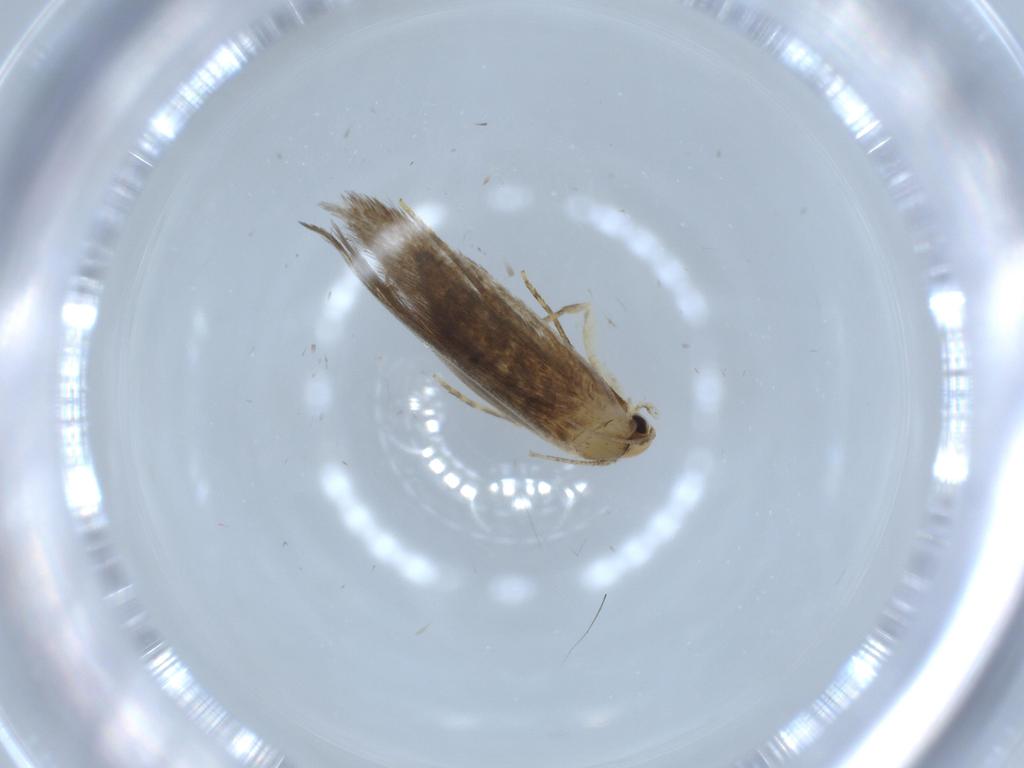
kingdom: Animalia
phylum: Arthropoda
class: Insecta
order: Lepidoptera
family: Tineidae
